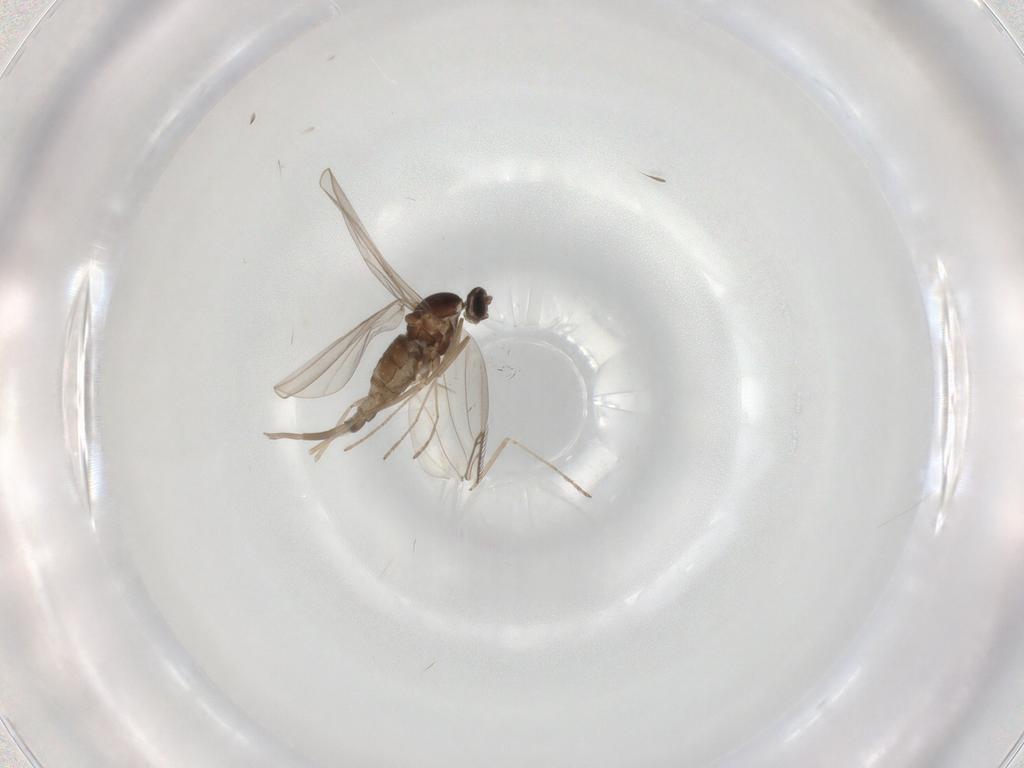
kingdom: Animalia
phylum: Arthropoda
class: Insecta
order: Diptera
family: Cecidomyiidae
